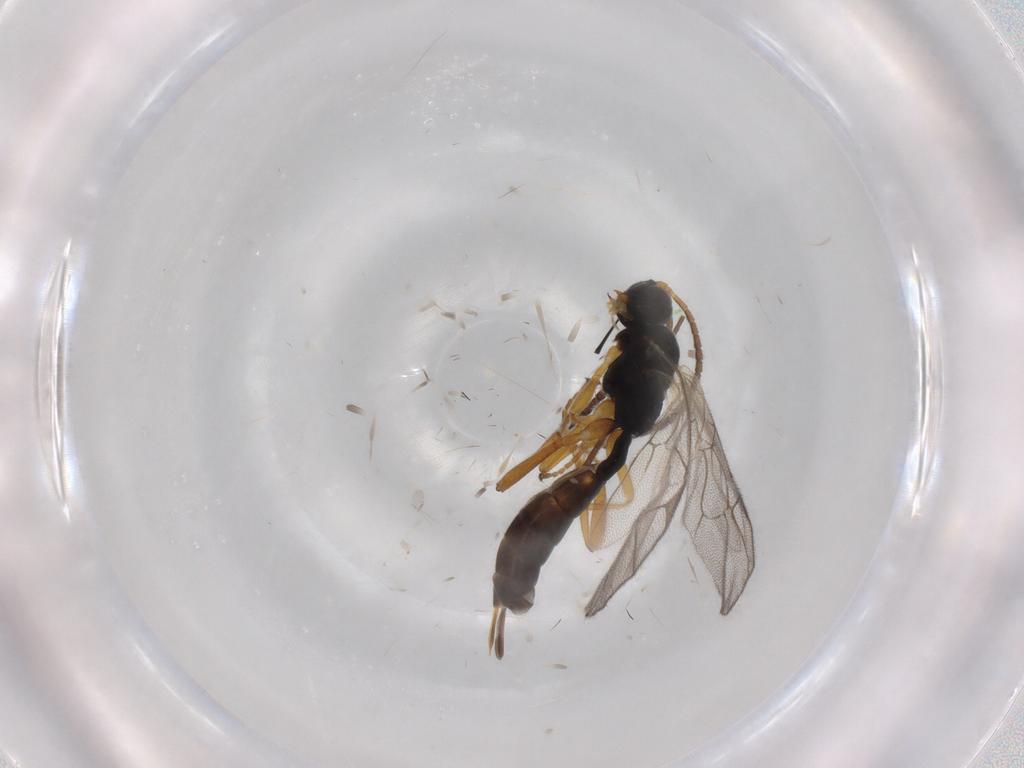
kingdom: Animalia
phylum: Arthropoda
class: Insecta
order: Hymenoptera
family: Ichneumonidae
